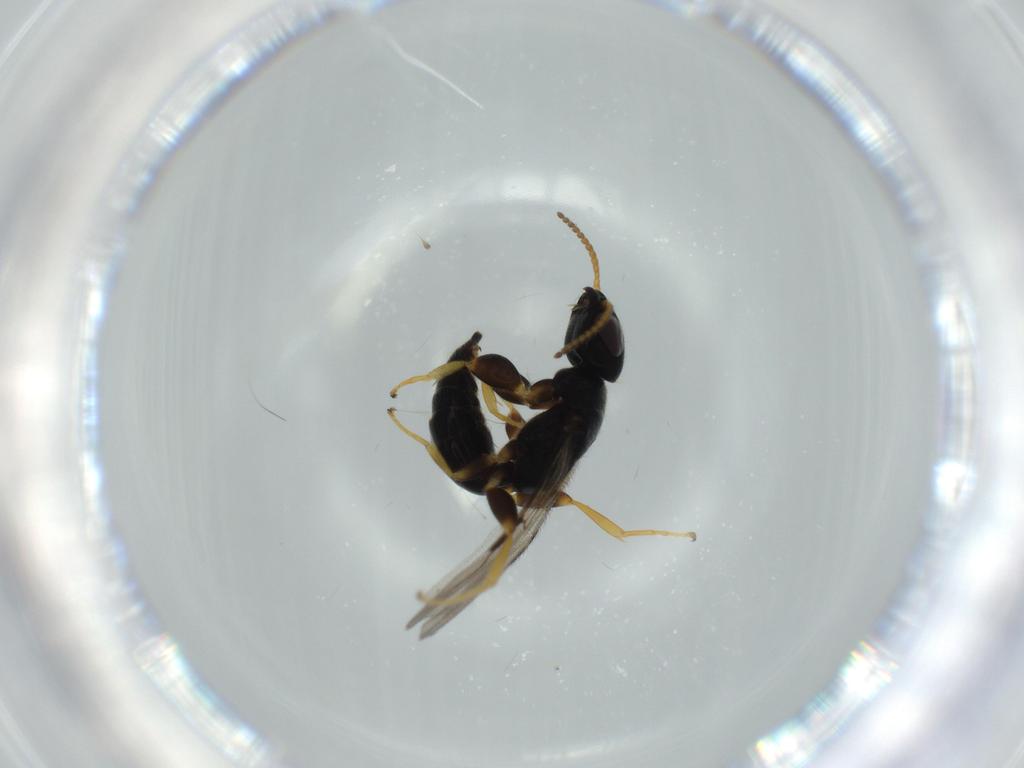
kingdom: Animalia
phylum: Arthropoda
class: Insecta
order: Hymenoptera
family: Bethylidae
